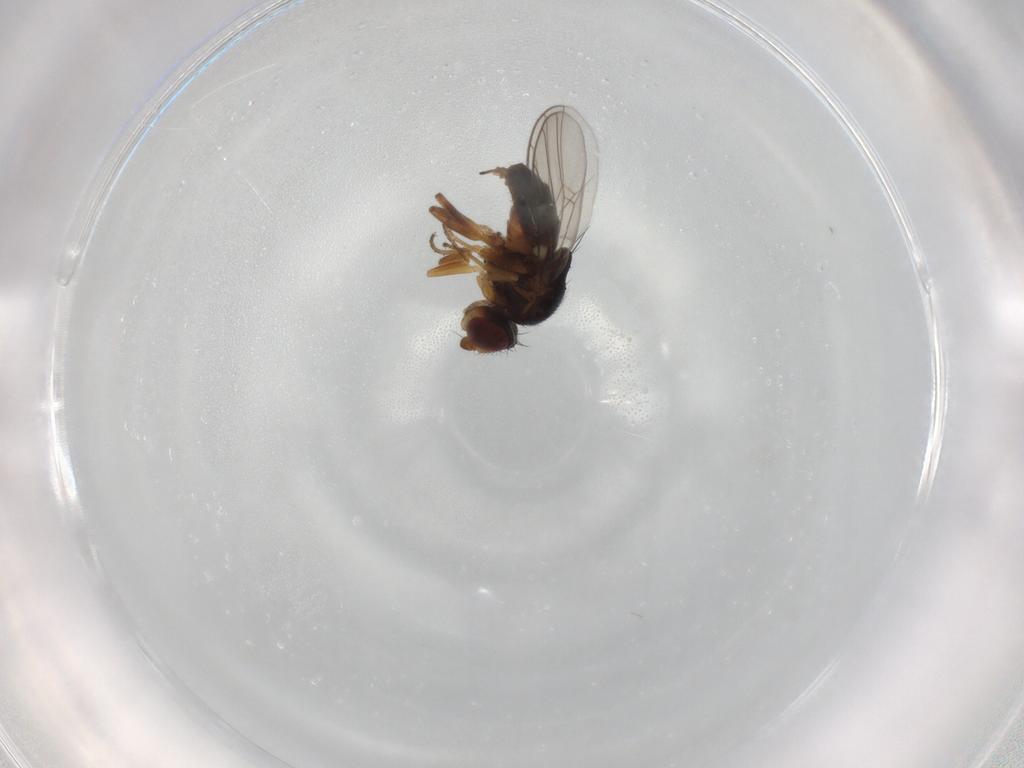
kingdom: Animalia
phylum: Arthropoda
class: Insecta
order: Diptera
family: Chloropidae
